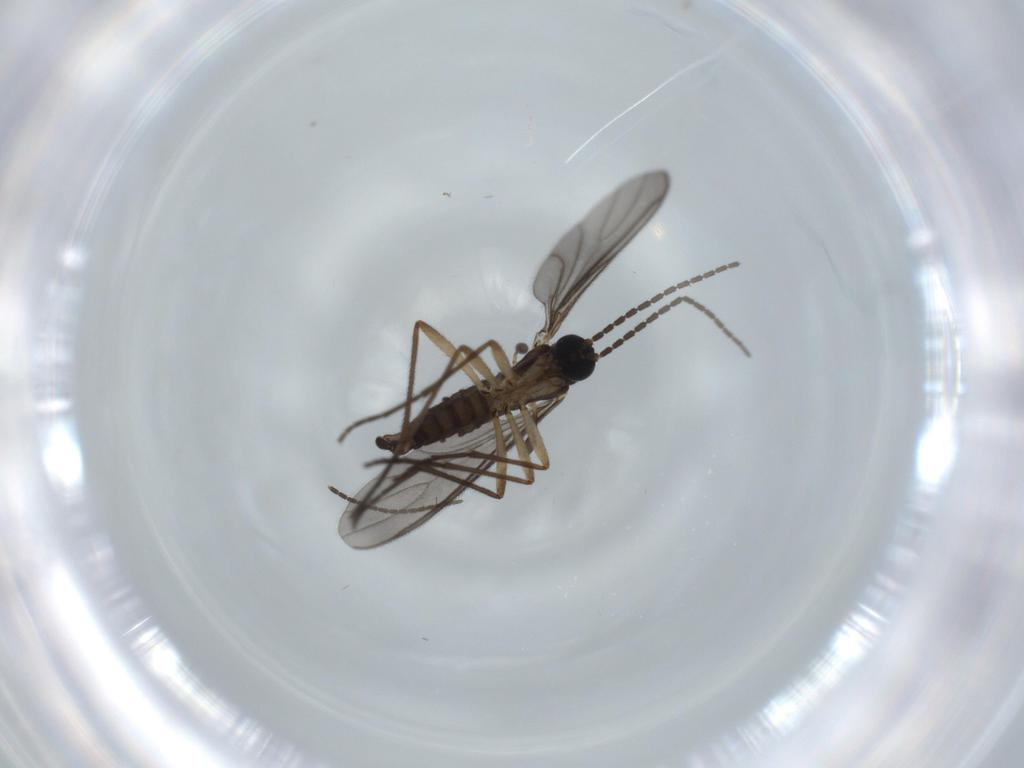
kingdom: Animalia
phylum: Arthropoda
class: Insecta
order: Diptera
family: Sciaridae
